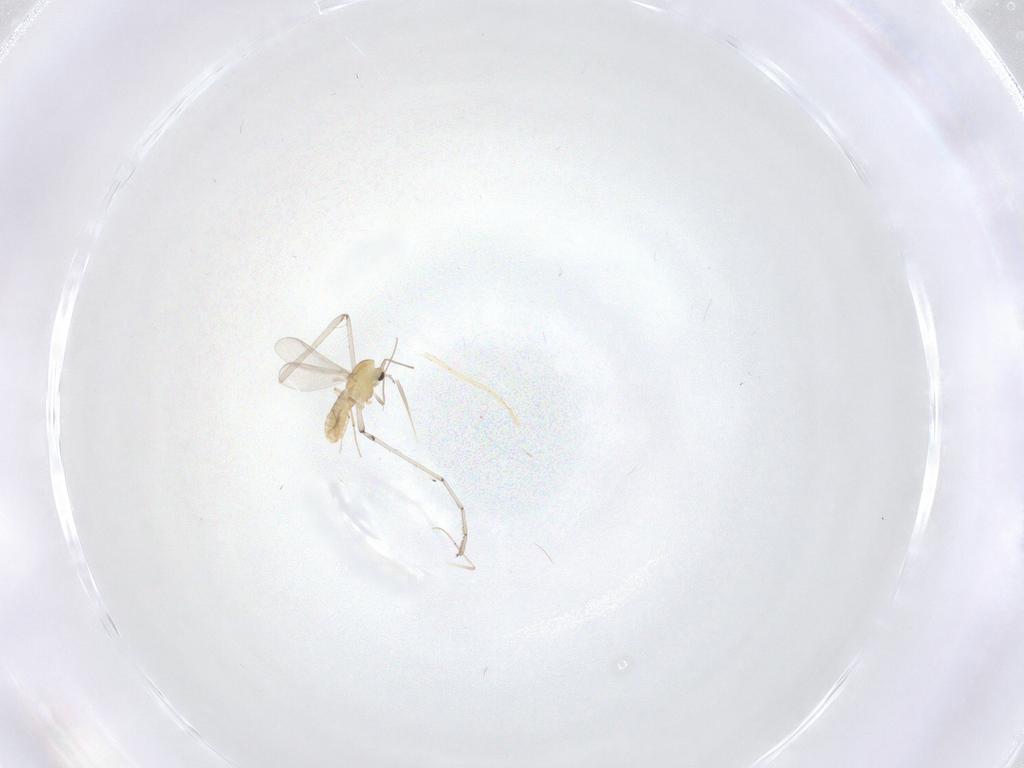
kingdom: Animalia
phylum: Arthropoda
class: Insecta
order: Diptera
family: Chironomidae
